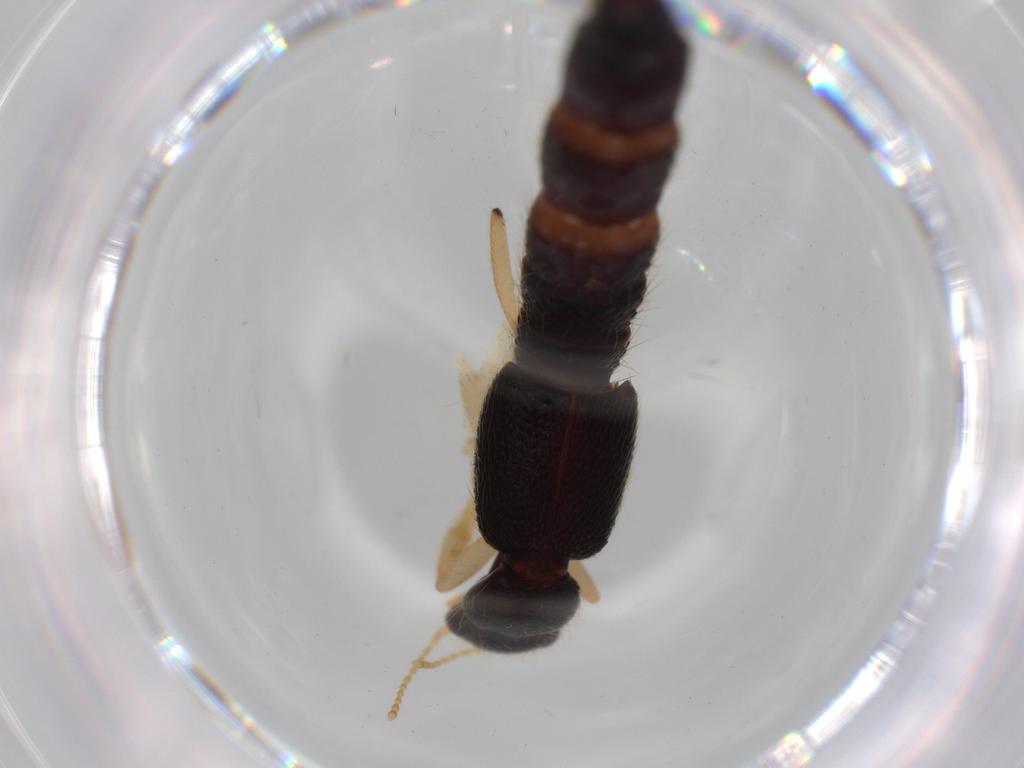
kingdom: Animalia
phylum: Arthropoda
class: Insecta
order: Coleoptera
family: Staphylinidae
